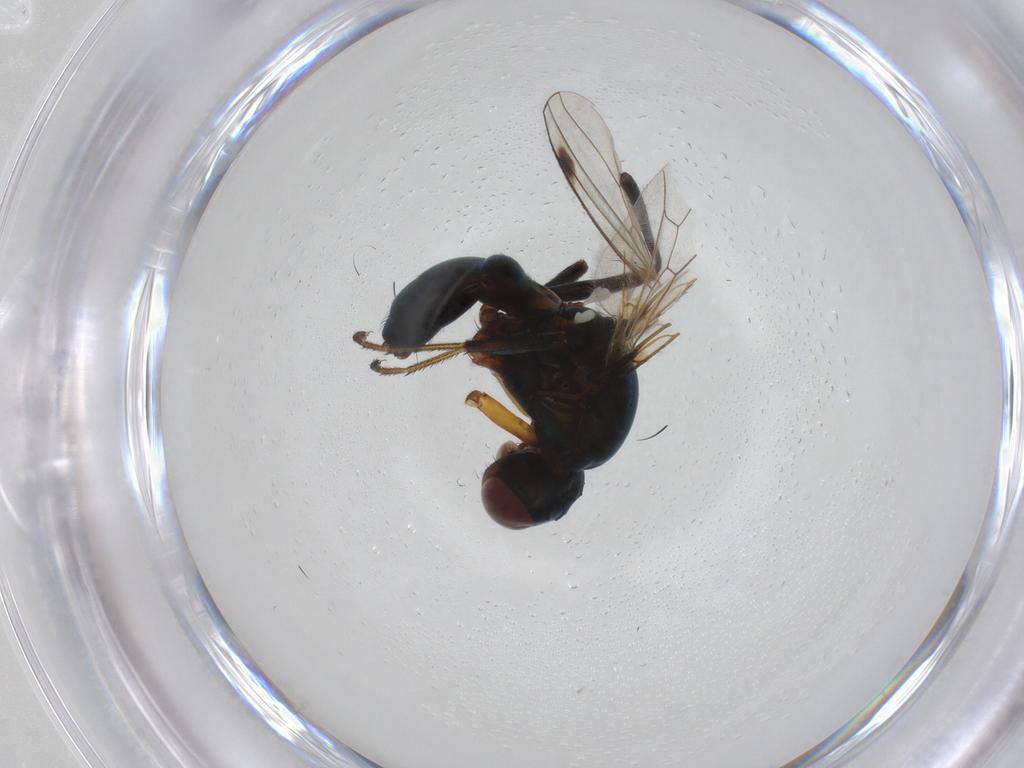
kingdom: Animalia
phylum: Arthropoda
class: Insecta
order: Diptera
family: Sepsidae
